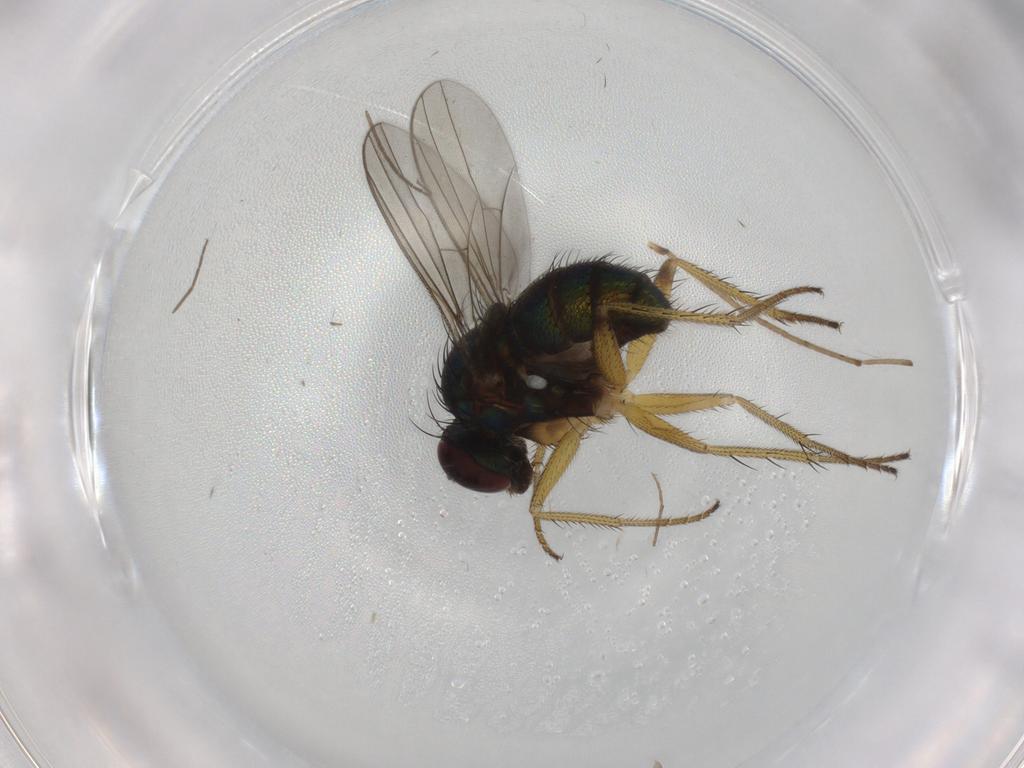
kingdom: Animalia
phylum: Arthropoda
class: Insecta
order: Diptera
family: Dolichopodidae
